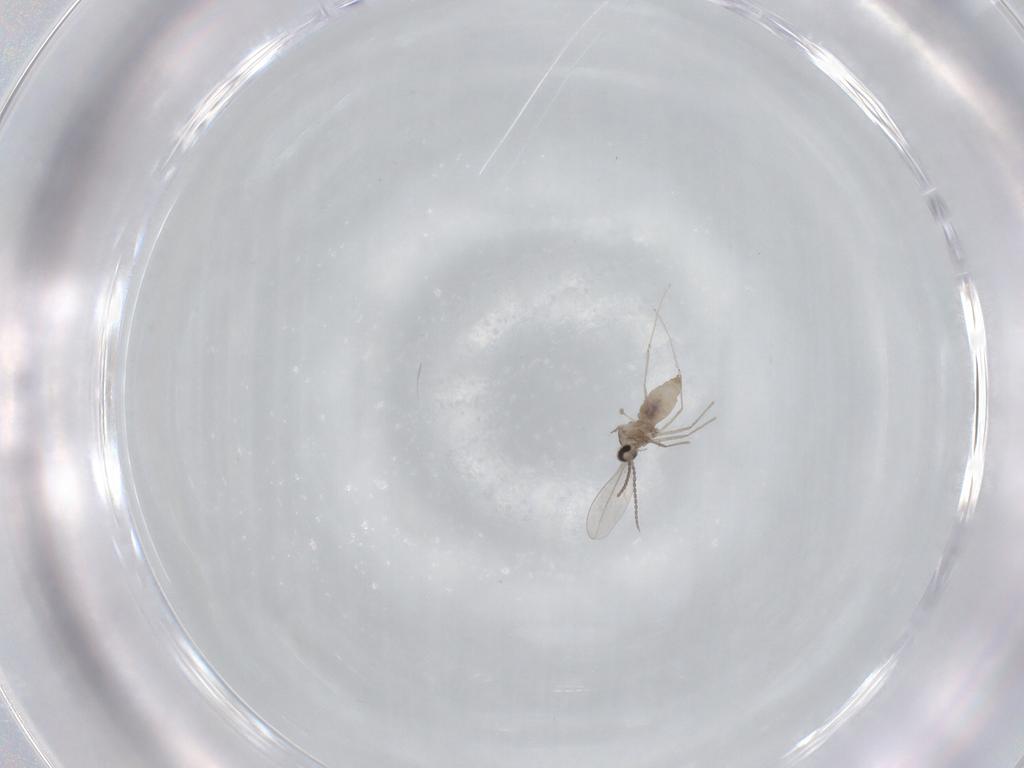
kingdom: Animalia
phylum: Arthropoda
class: Insecta
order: Diptera
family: Cecidomyiidae
